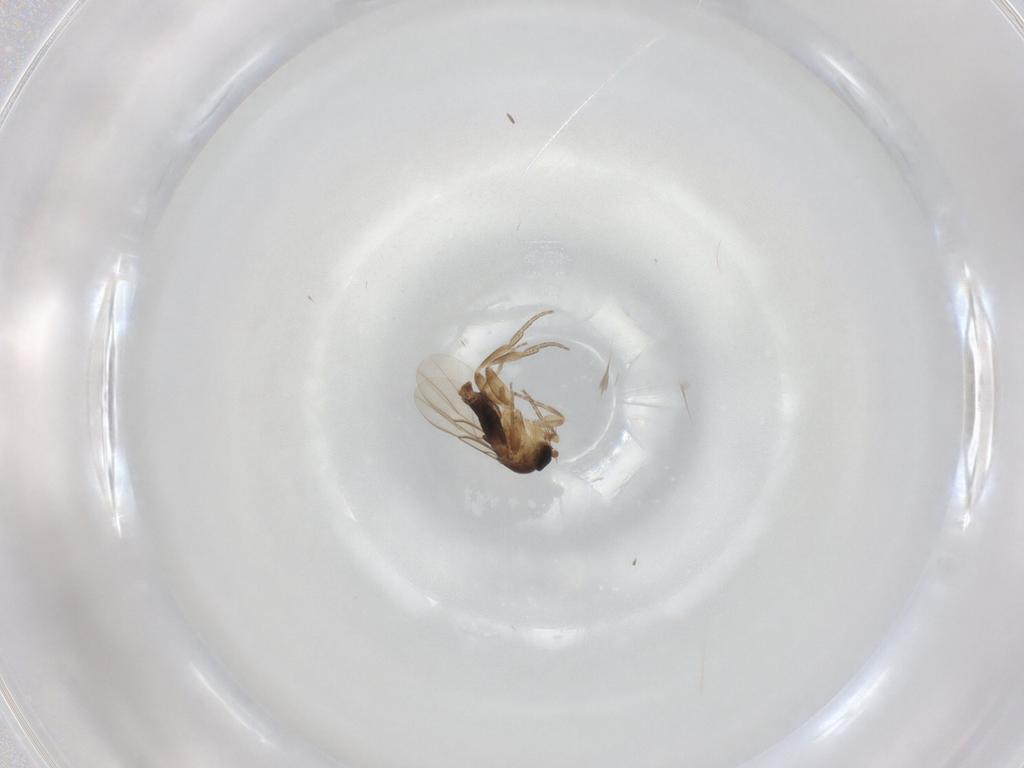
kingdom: Animalia
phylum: Arthropoda
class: Insecta
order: Diptera
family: Phoridae
